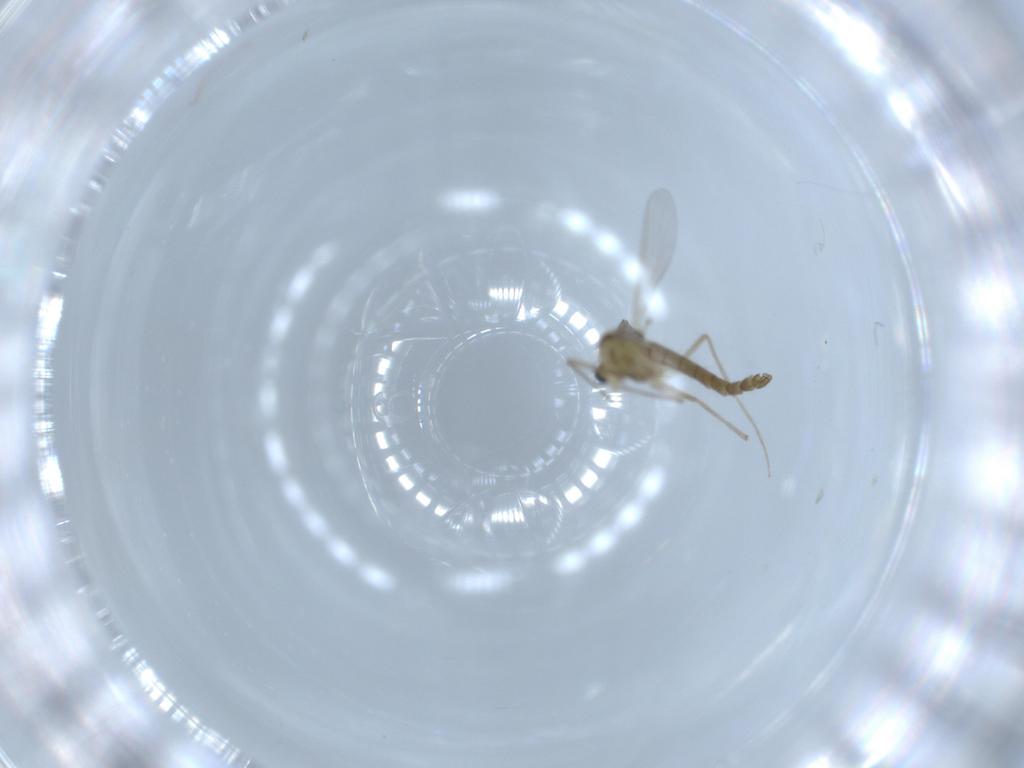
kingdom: Animalia
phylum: Arthropoda
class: Insecta
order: Diptera
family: Chironomidae
